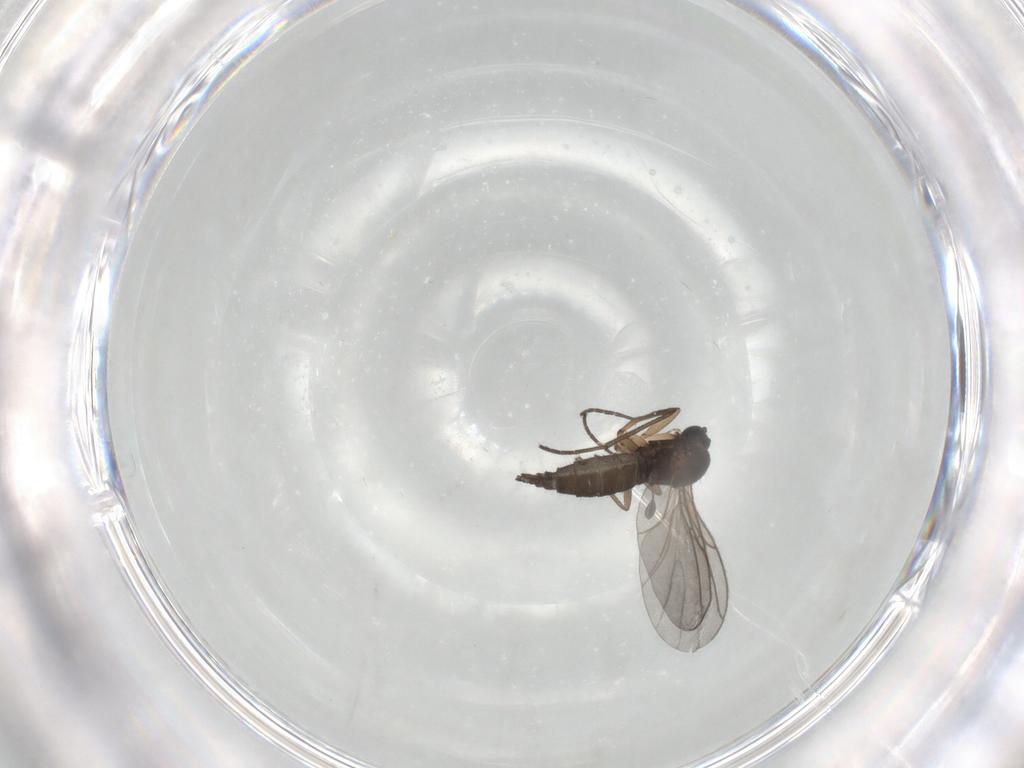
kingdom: Animalia
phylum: Arthropoda
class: Insecta
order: Diptera
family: Sciaridae
